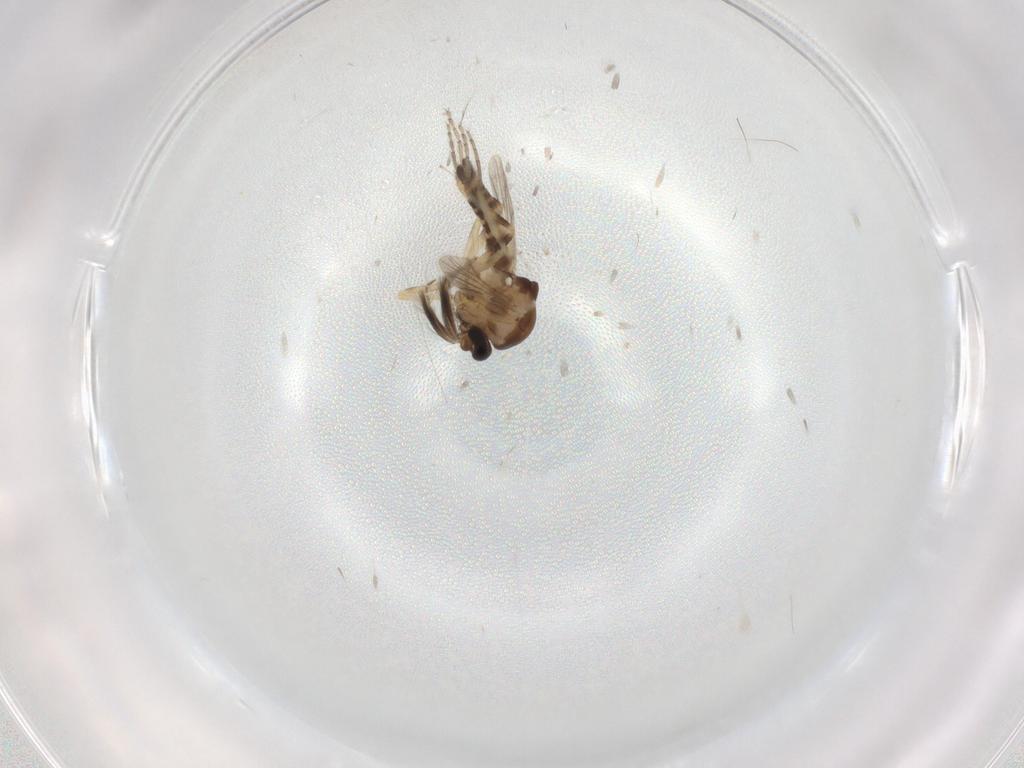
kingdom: Animalia
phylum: Arthropoda
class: Insecta
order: Diptera
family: Ceratopogonidae
